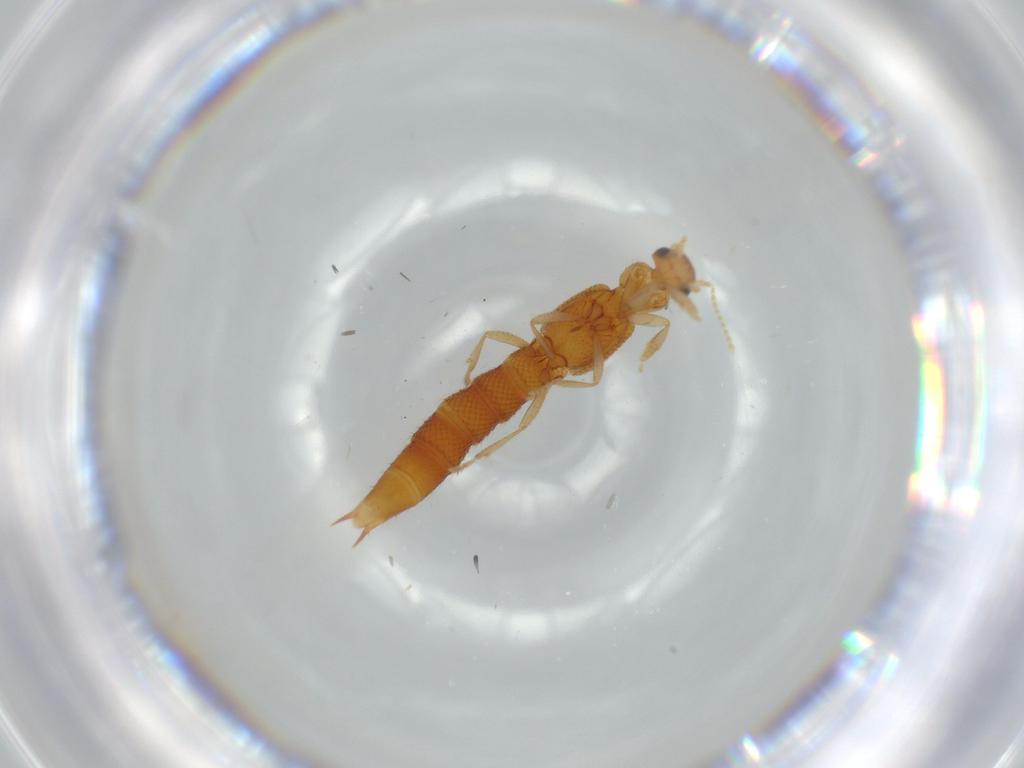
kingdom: Animalia
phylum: Arthropoda
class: Insecta
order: Coleoptera
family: Staphylinidae
